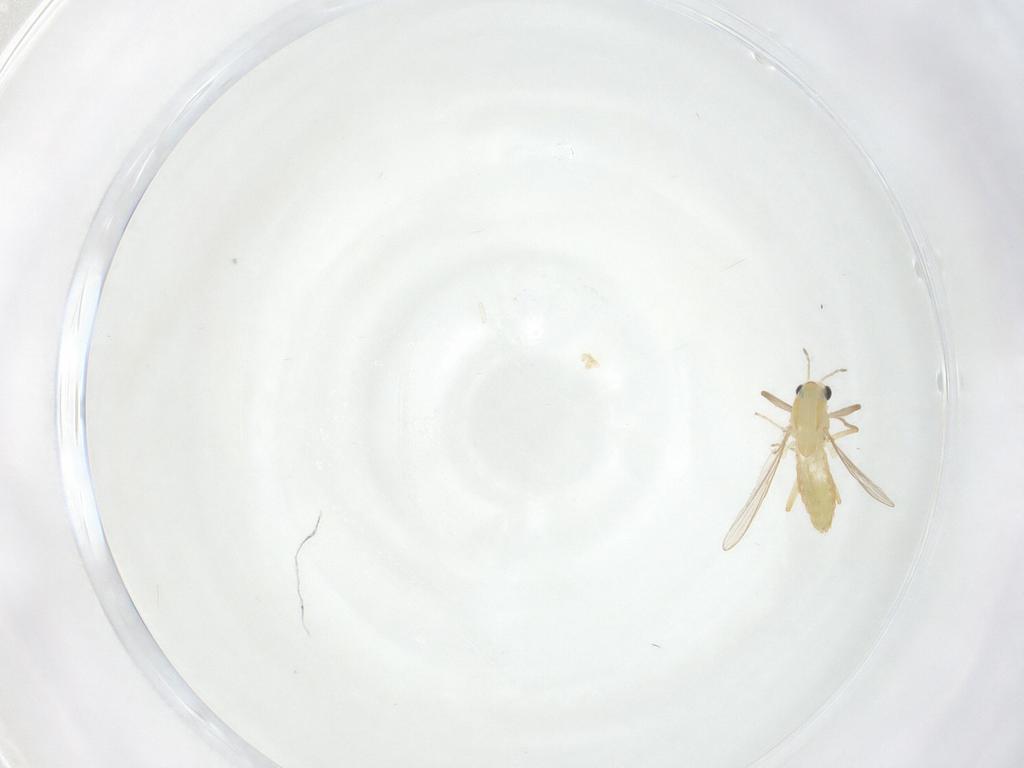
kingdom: Animalia
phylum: Arthropoda
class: Insecta
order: Diptera
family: Chironomidae
